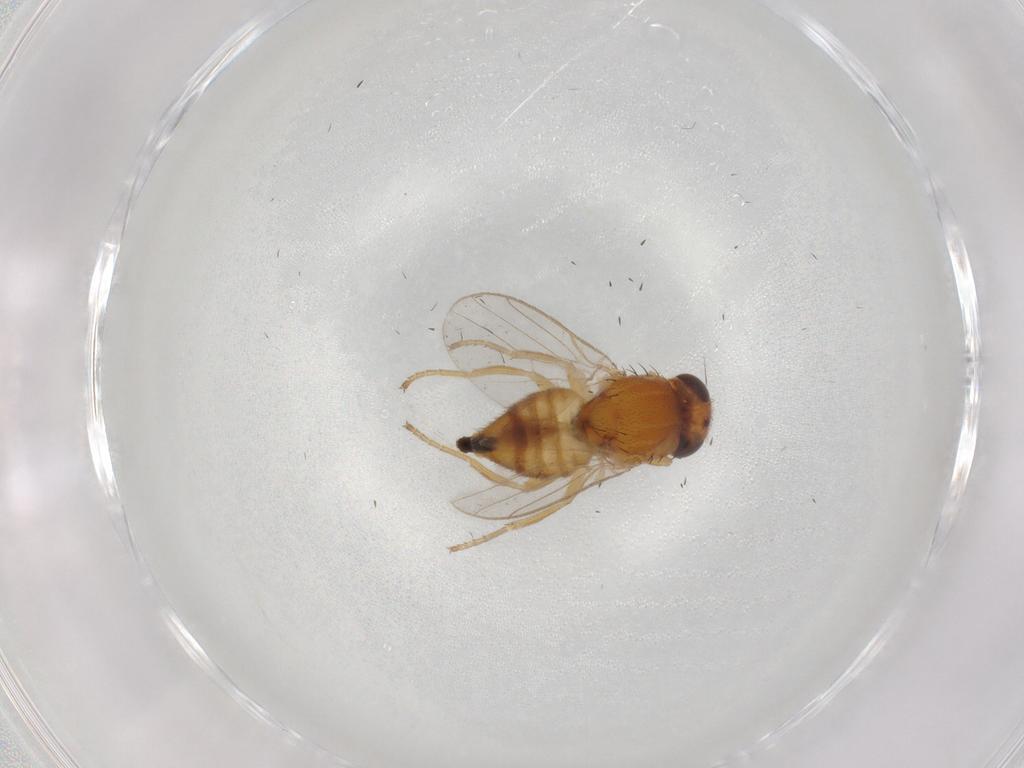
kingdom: Animalia
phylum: Arthropoda
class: Insecta
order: Diptera
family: Chloropidae
